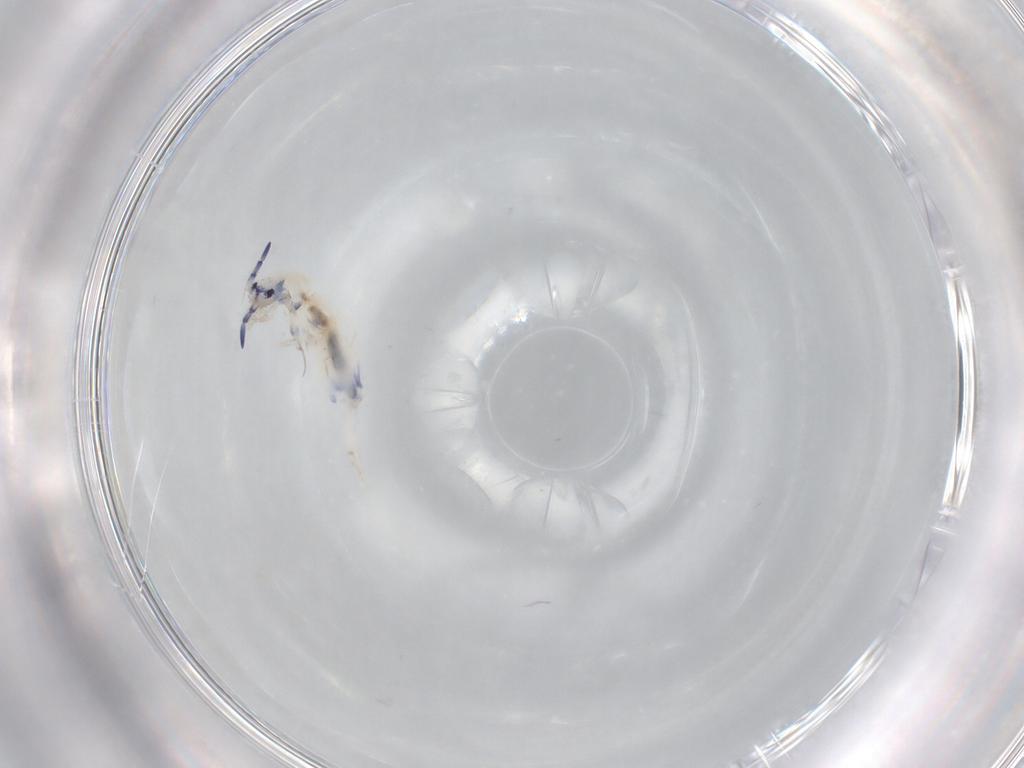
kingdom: Animalia
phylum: Arthropoda
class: Collembola
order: Entomobryomorpha
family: Entomobryidae
